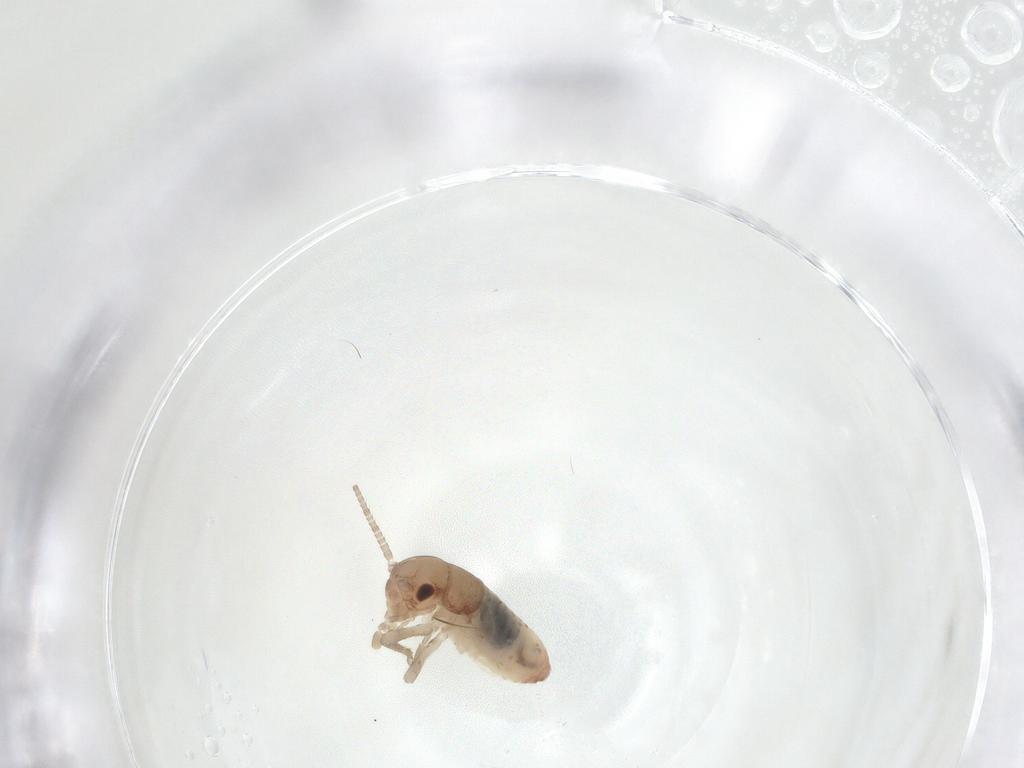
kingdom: Animalia
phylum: Arthropoda
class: Insecta
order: Orthoptera
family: Mogoplistidae
